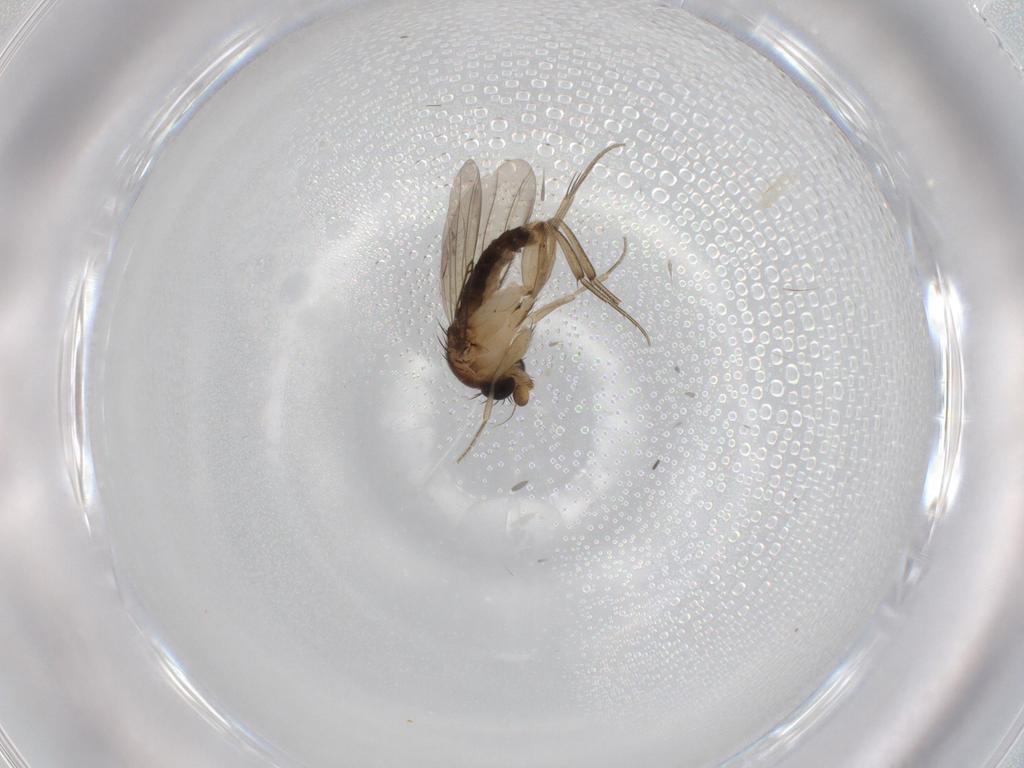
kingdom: Animalia
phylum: Arthropoda
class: Insecta
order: Diptera
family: Phoridae
